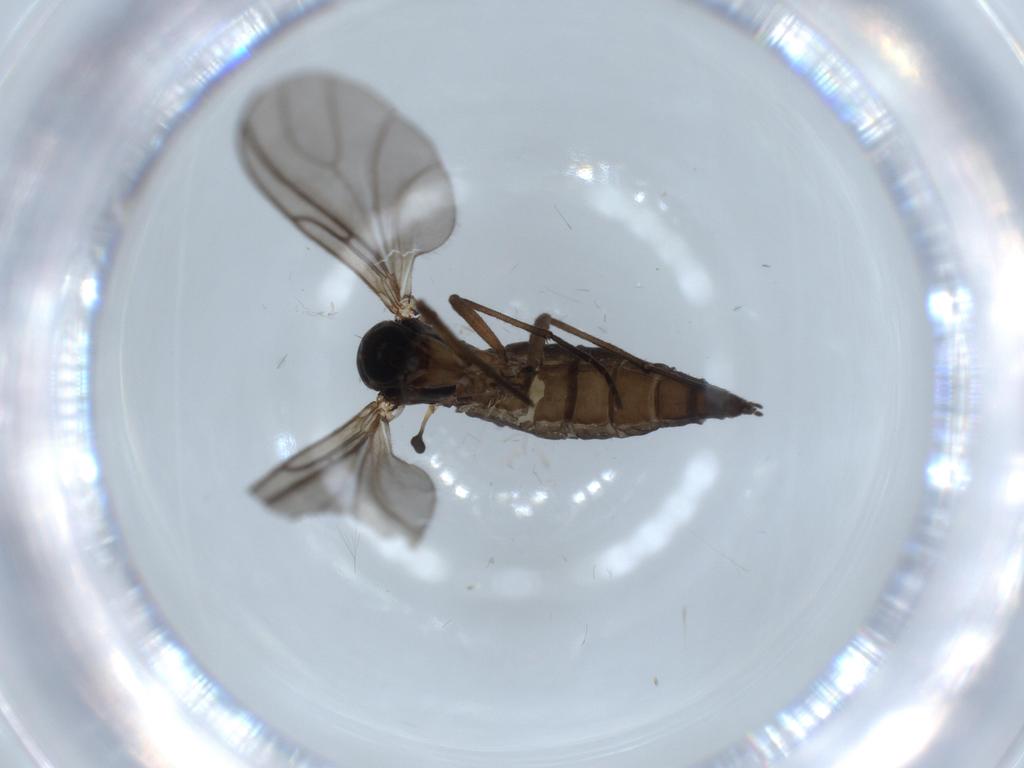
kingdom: Animalia
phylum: Arthropoda
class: Insecta
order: Diptera
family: Sciaridae
